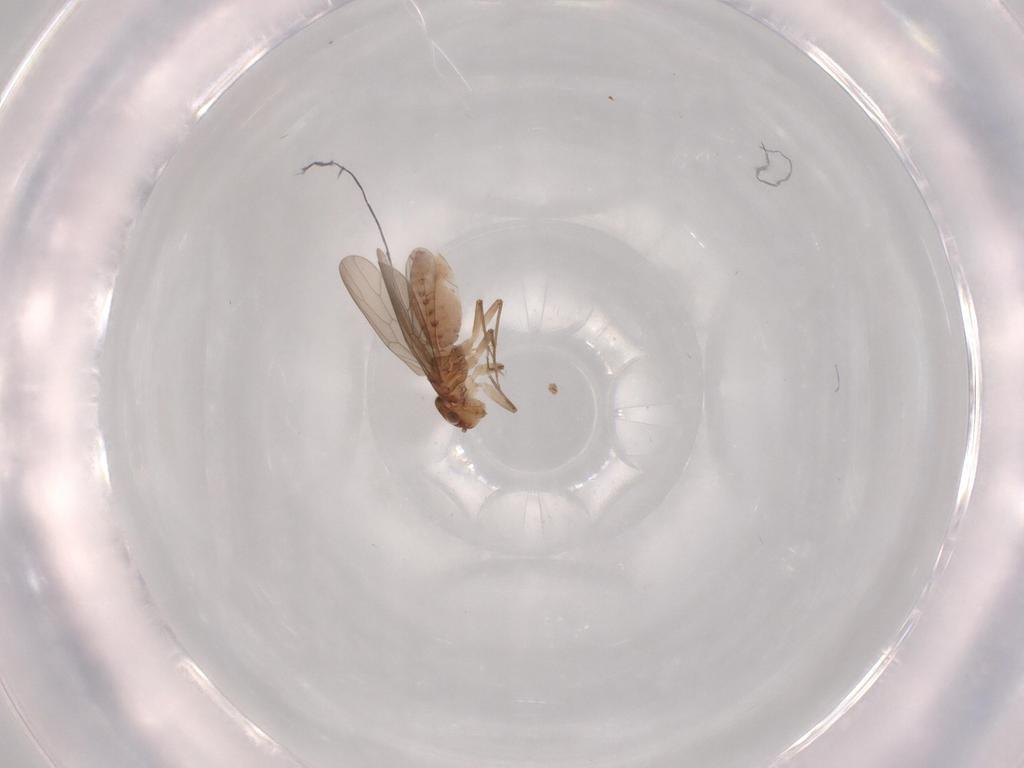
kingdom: Animalia
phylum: Arthropoda
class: Insecta
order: Psocodea
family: Lepidopsocidae
